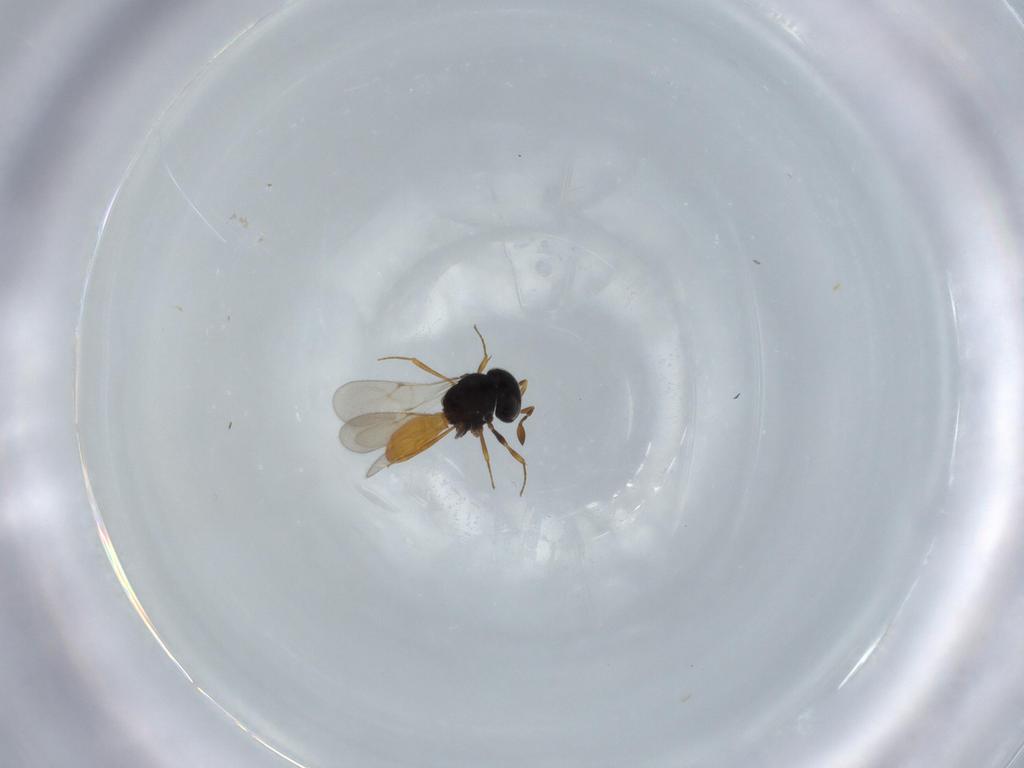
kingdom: Animalia
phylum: Arthropoda
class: Insecta
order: Hymenoptera
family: Scelionidae
